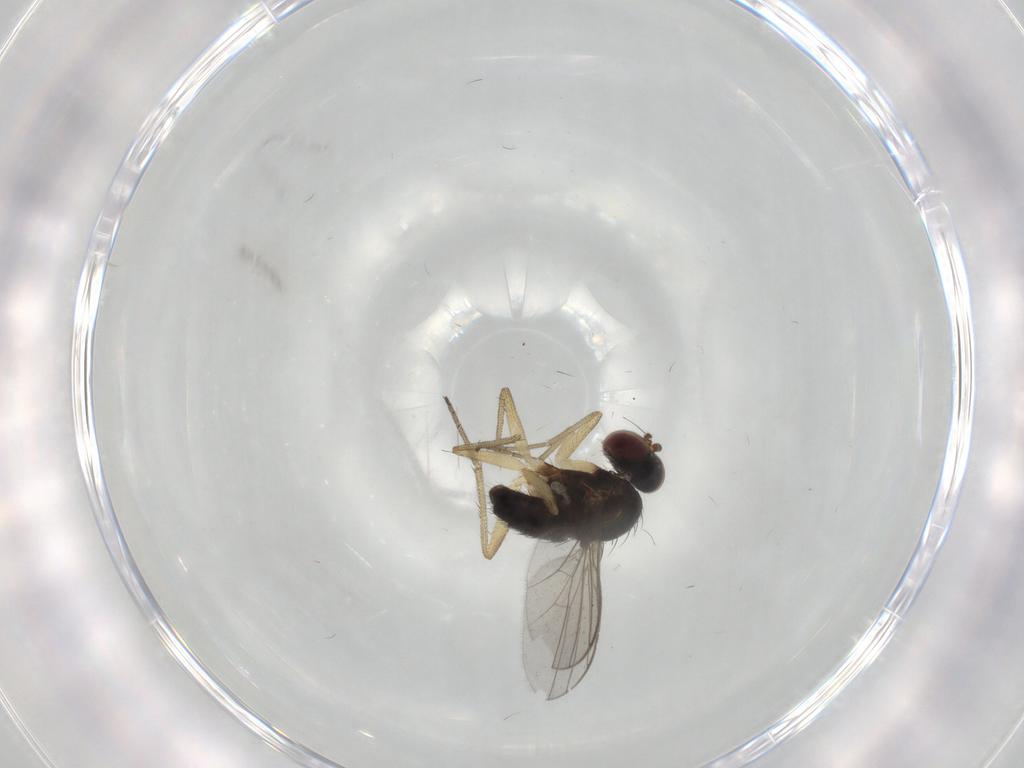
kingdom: Animalia
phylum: Arthropoda
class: Insecta
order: Diptera
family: Dolichopodidae
